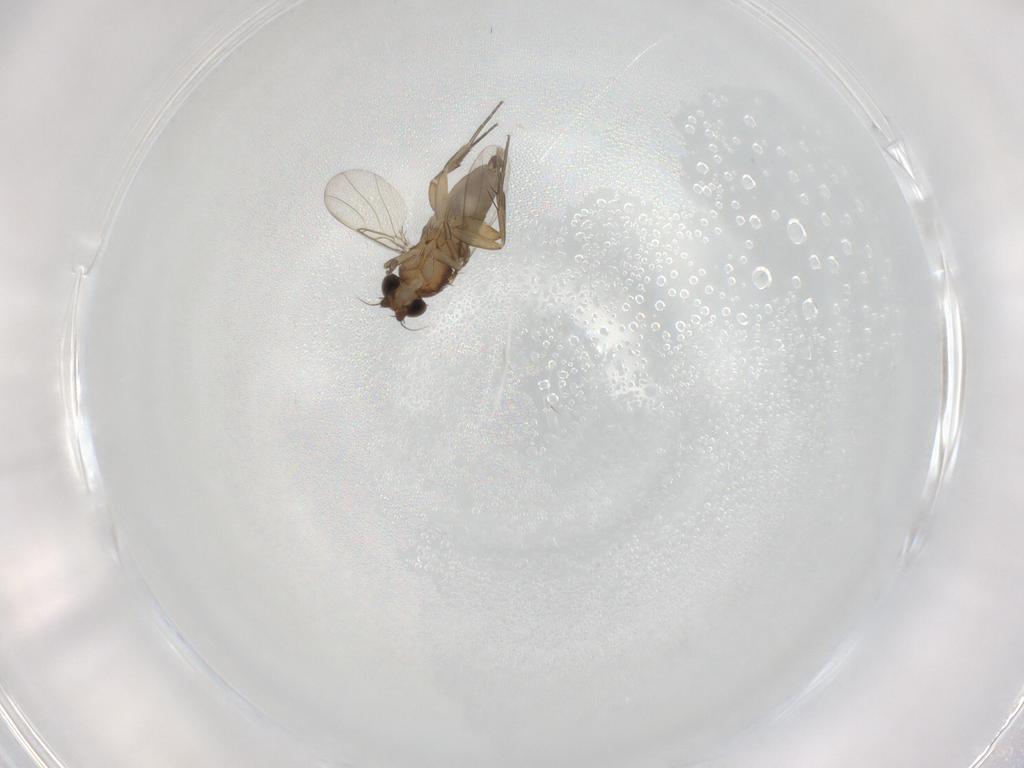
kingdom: Animalia
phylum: Arthropoda
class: Insecta
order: Diptera
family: Phoridae
